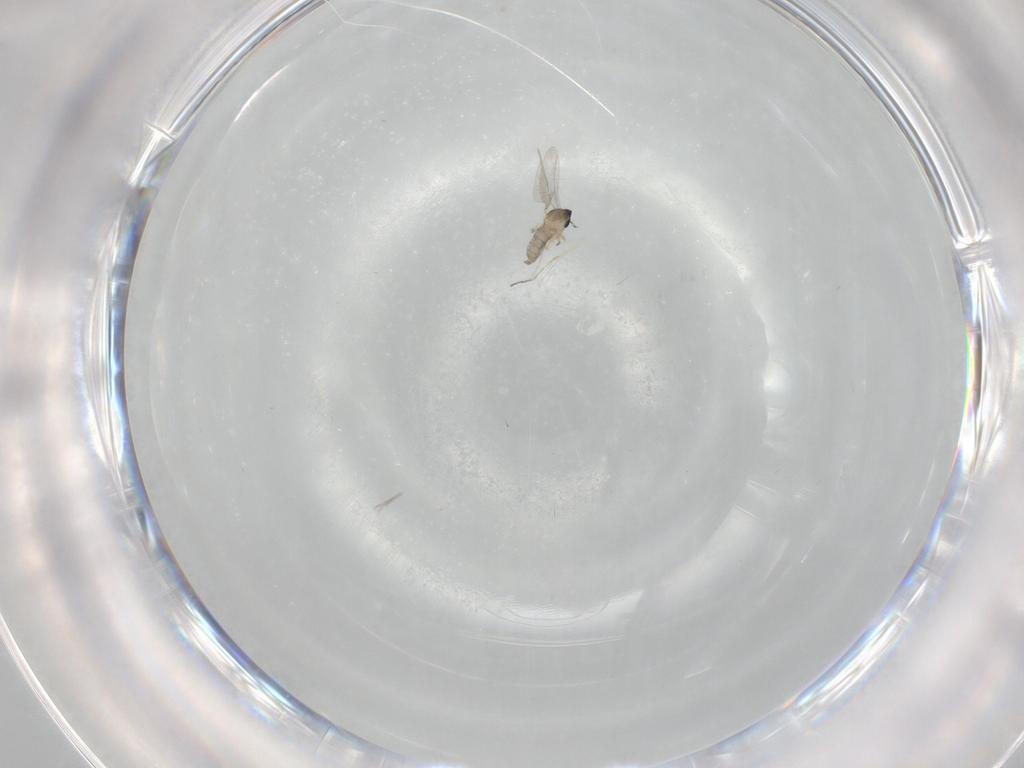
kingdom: Animalia
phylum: Arthropoda
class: Insecta
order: Diptera
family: Cecidomyiidae
